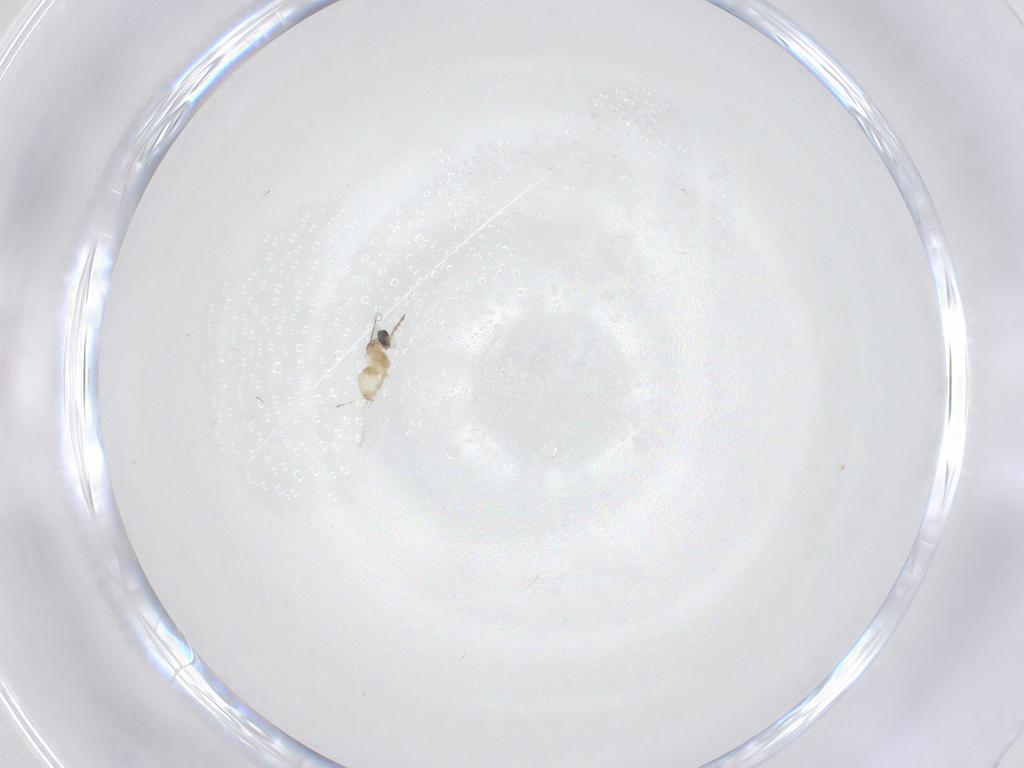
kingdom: Animalia
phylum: Arthropoda
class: Insecta
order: Diptera
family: Cecidomyiidae
